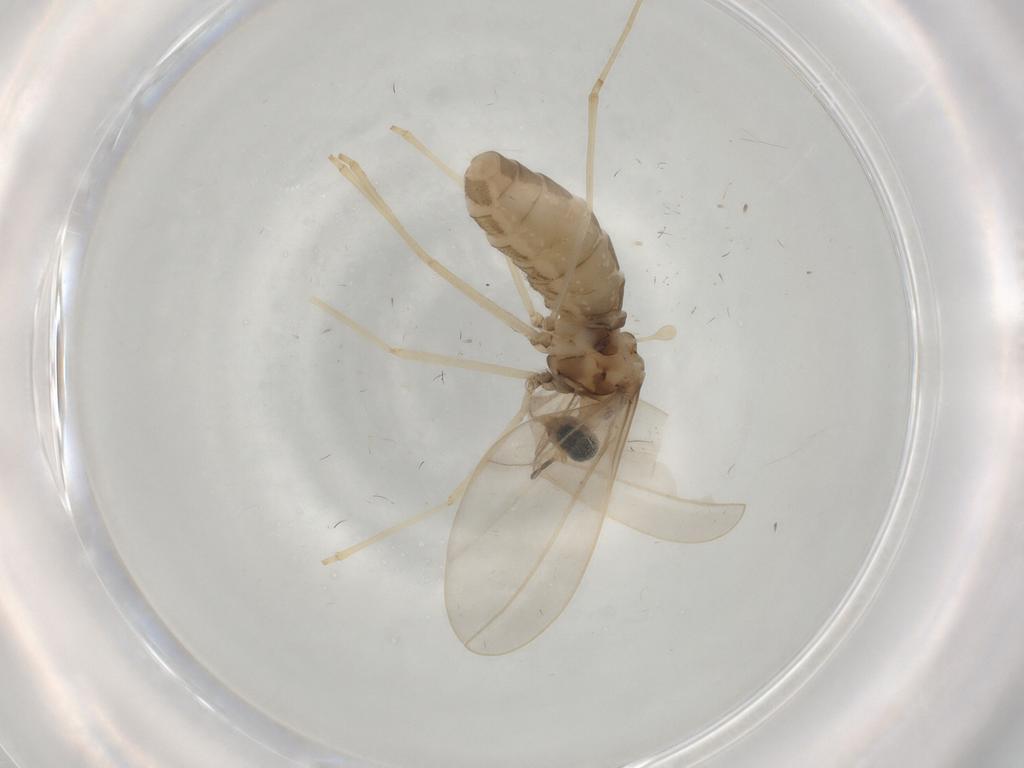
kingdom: Animalia
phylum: Arthropoda
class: Insecta
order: Diptera
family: Cecidomyiidae
